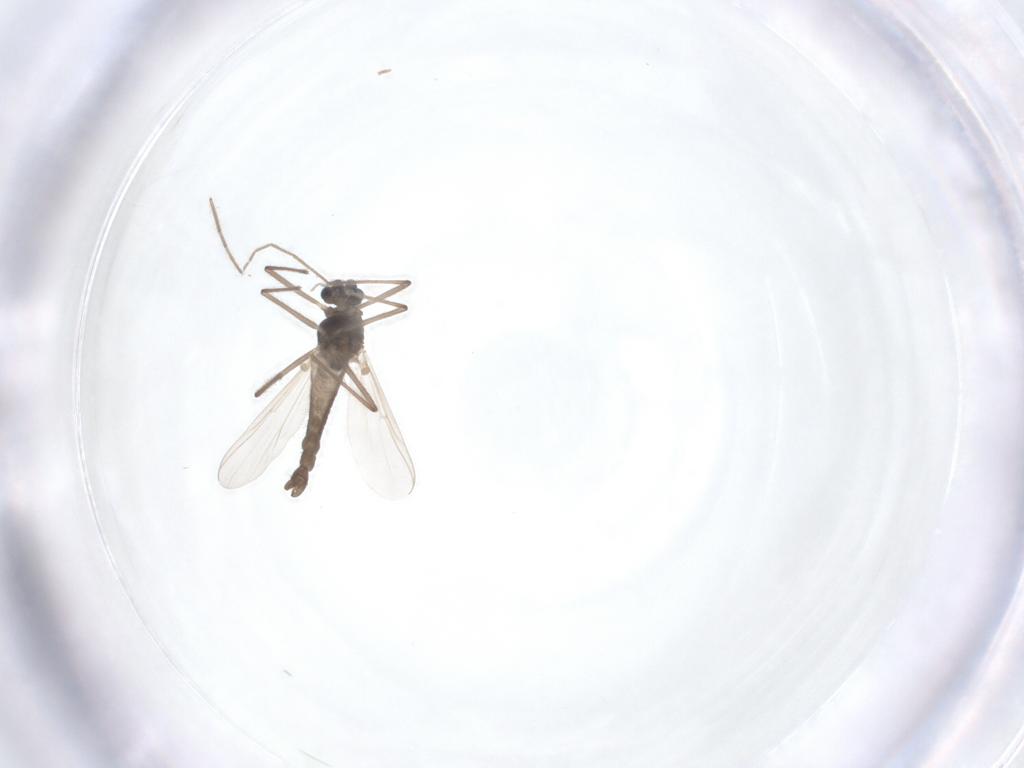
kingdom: Animalia
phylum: Arthropoda
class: Insecta
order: Diptera
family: Chironomidae
